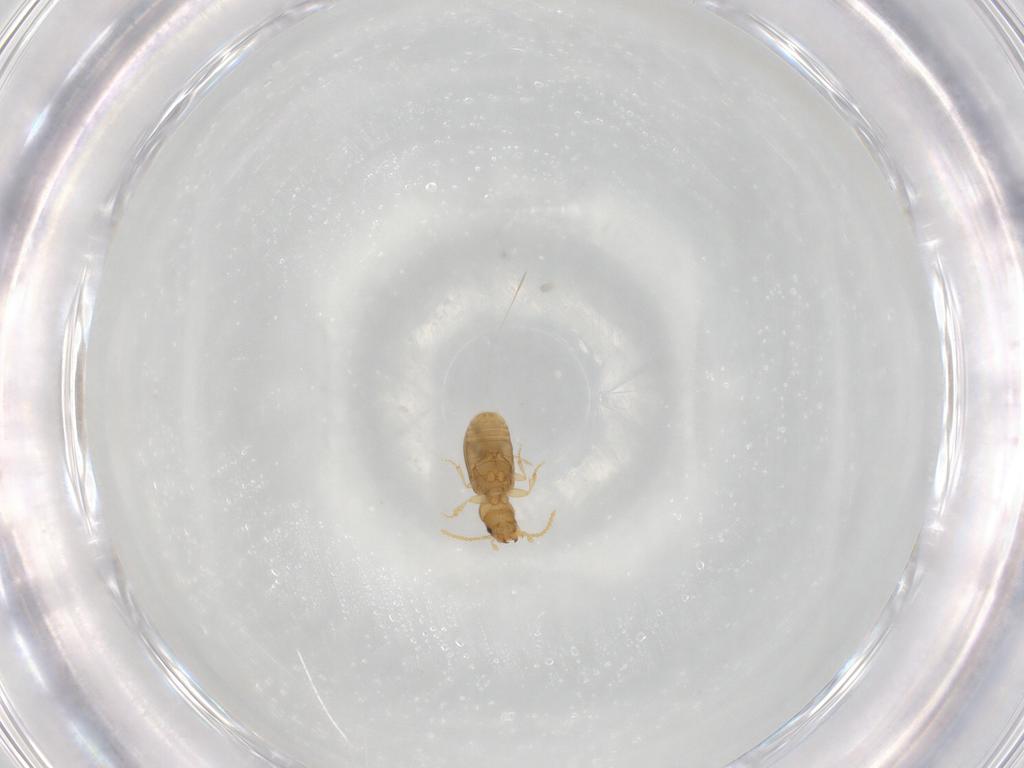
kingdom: Animalia
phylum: Arthropoda
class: Insecta
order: Coleoptera
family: Carabidae
